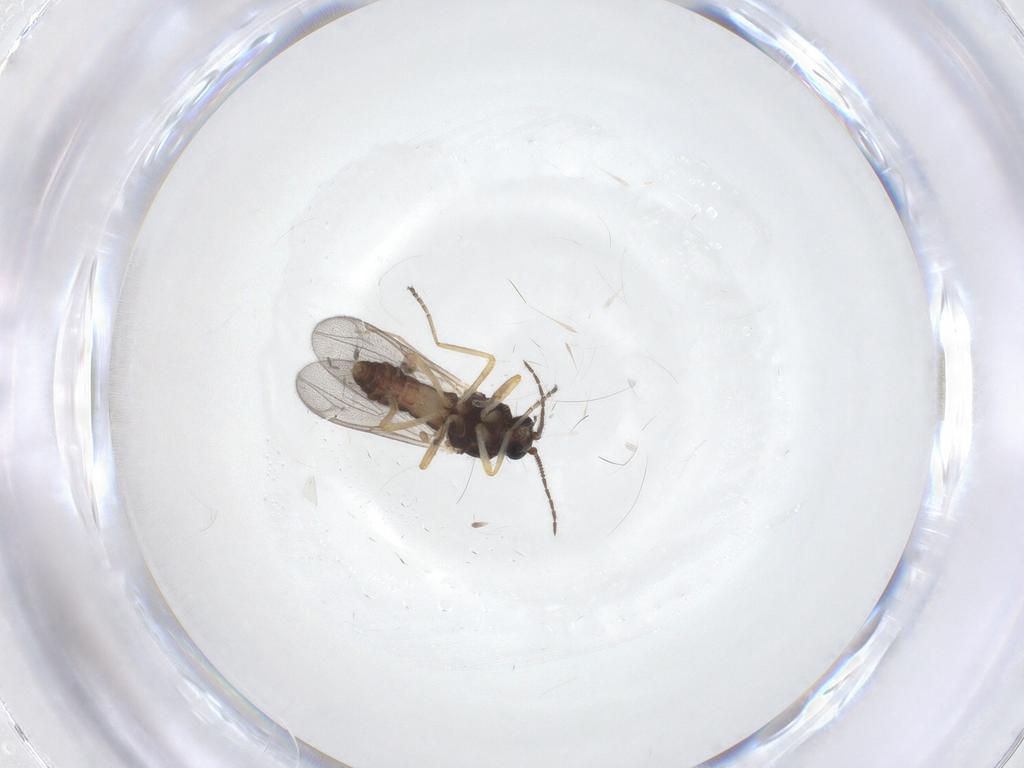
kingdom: Animalia
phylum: Arthropoda
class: Insecta
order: Diptera
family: Ceratopogonidae
